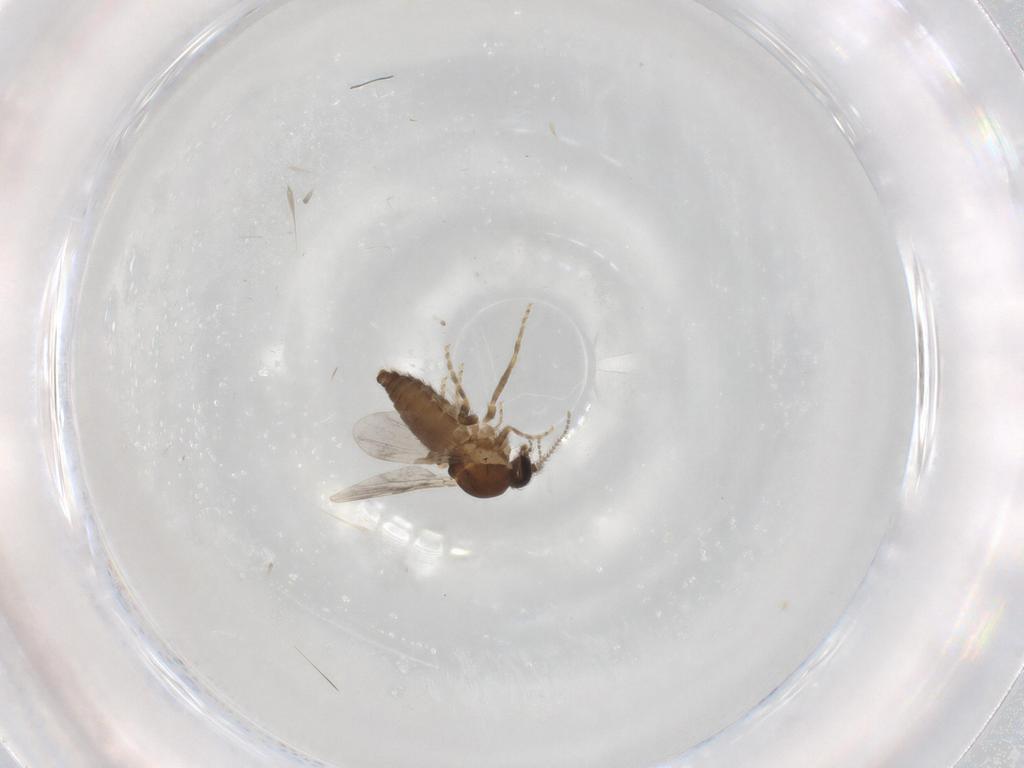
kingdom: Animalia
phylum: Arthropoda
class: Insecta
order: Diptera
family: Ceratopogonidae
